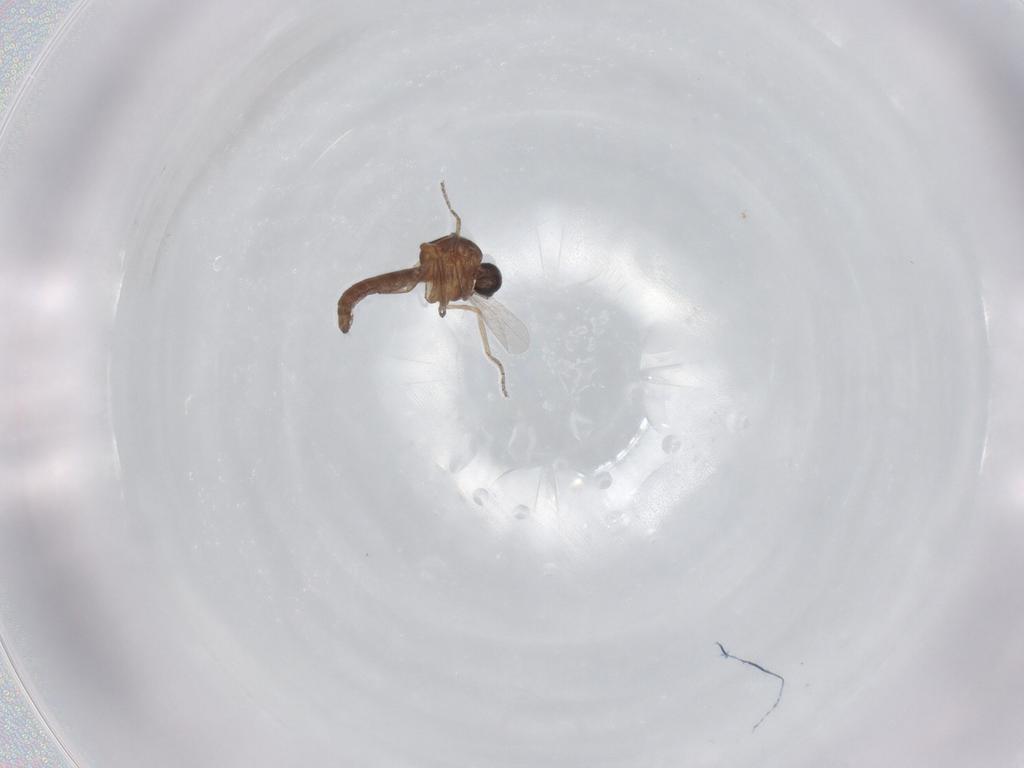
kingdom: Animalia
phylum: Arthropoda
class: Insecta
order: Diptera
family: Ceratopogonidae
